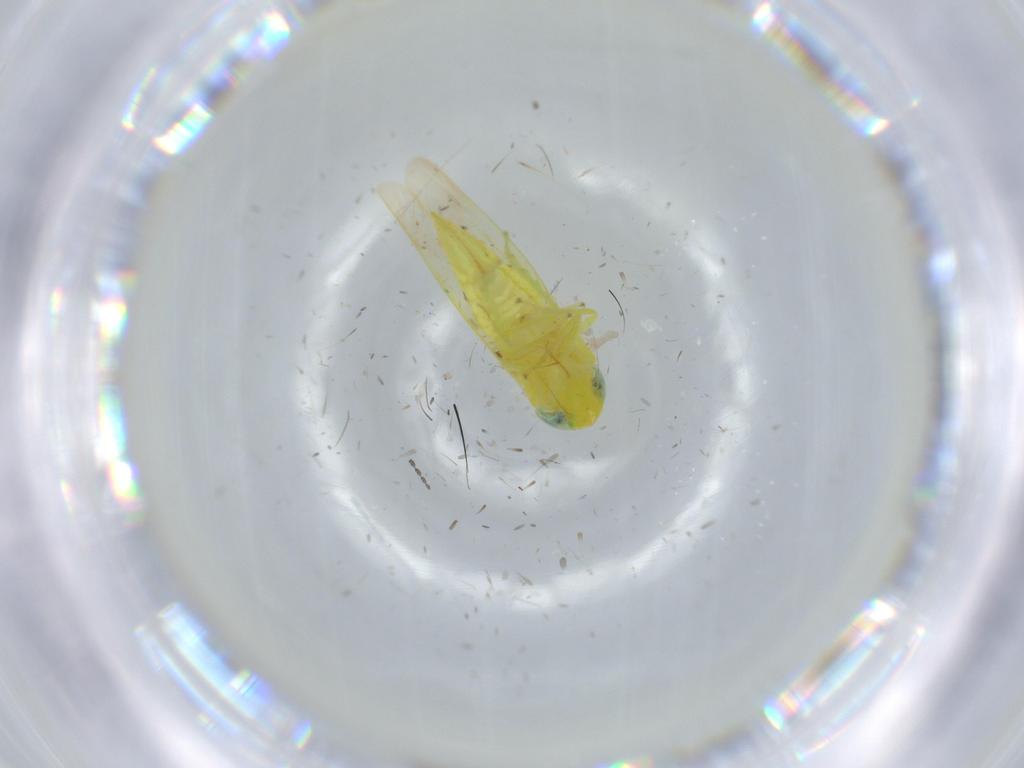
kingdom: Animalia
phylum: Arthropoda
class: Insecta
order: Hemiptera
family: Cicadellidae
